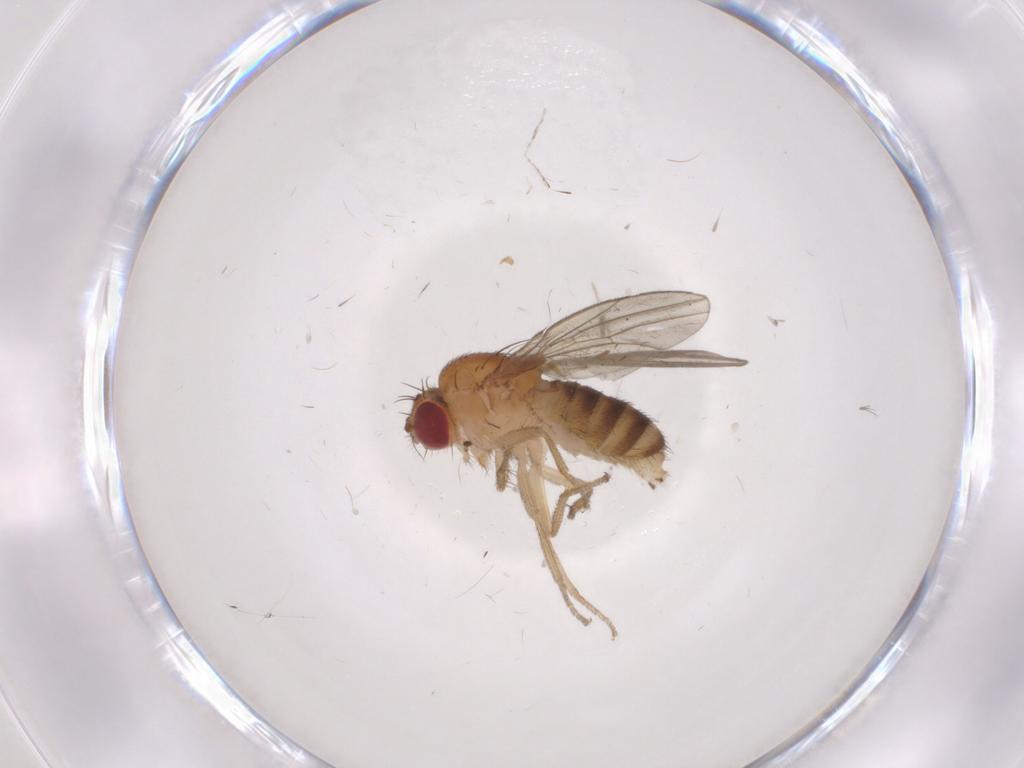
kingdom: Animalia
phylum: Arthropoda
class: Insecta
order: Diptera
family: Drosophilidae
